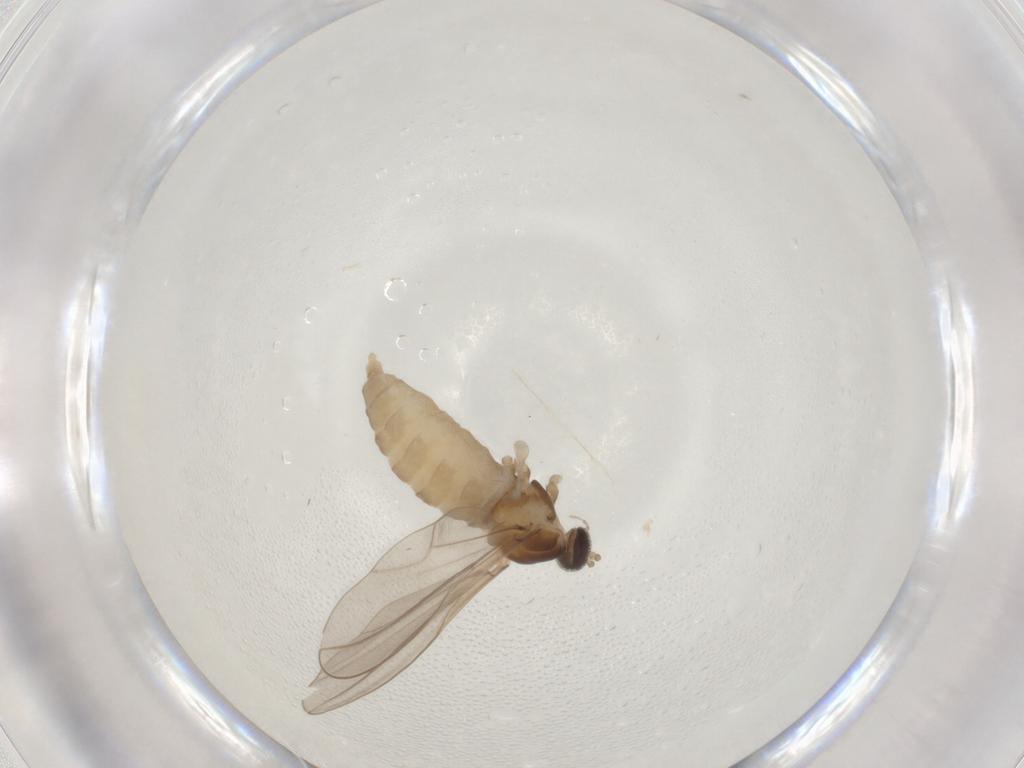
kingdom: Animalia
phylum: Arthropoda
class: Insecta
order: Diptera
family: Cecidomyiidae
